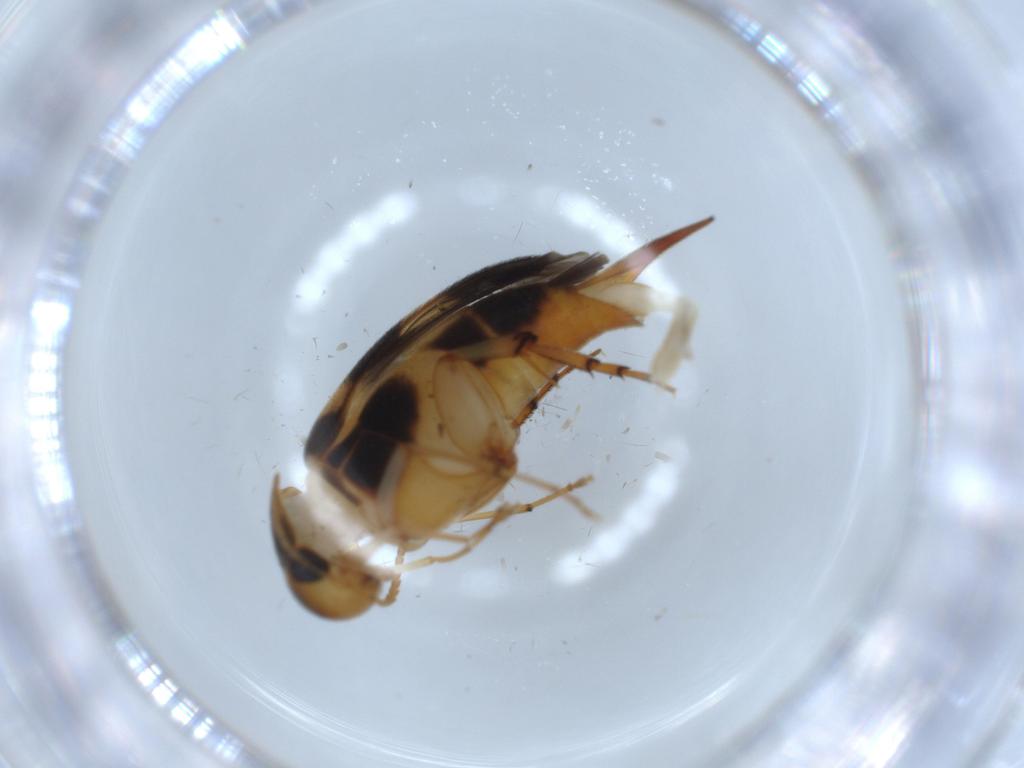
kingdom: Animalia
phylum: Arthropoda
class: Insecta
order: Coleoptera
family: Mordellidae
